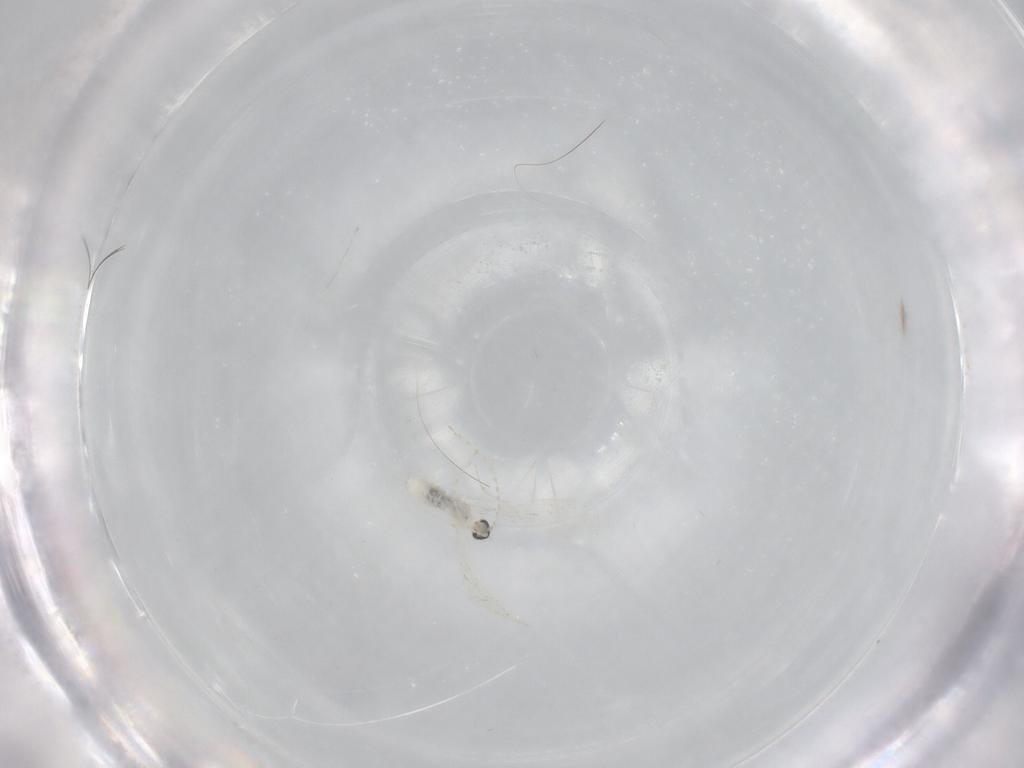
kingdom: Animalia
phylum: Arthropoda
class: Insecta
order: Diptera
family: Cecidomyiidae
